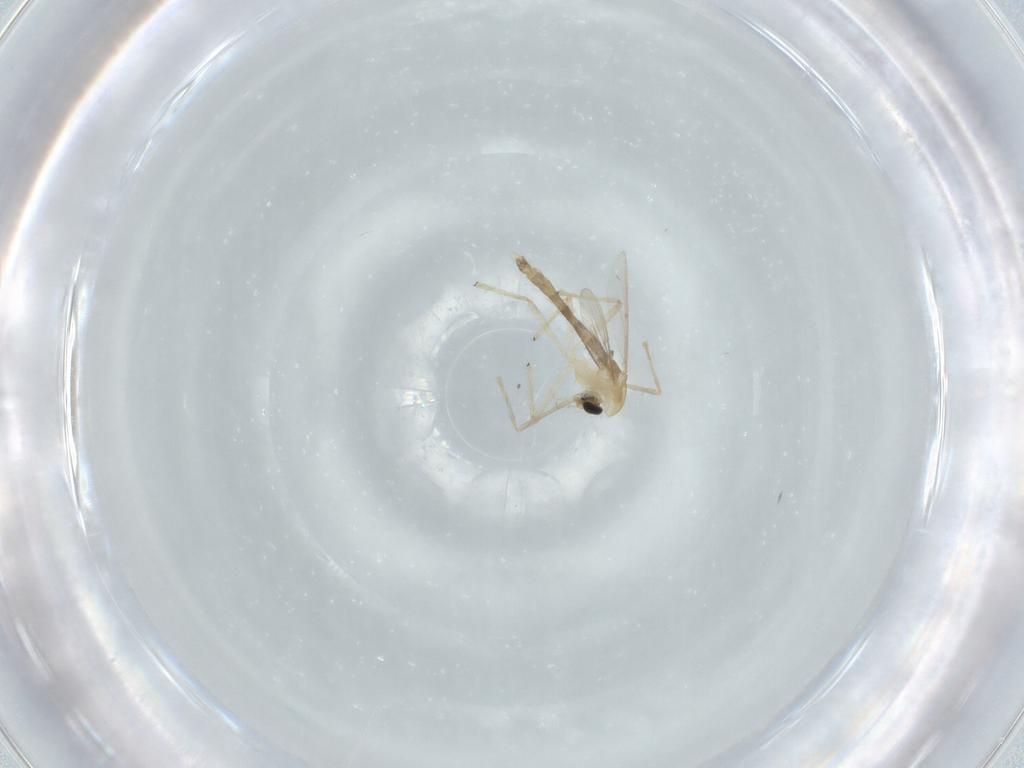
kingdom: Animalia
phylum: Arthropoda
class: Insecta
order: Diptera
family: Chironomidae
